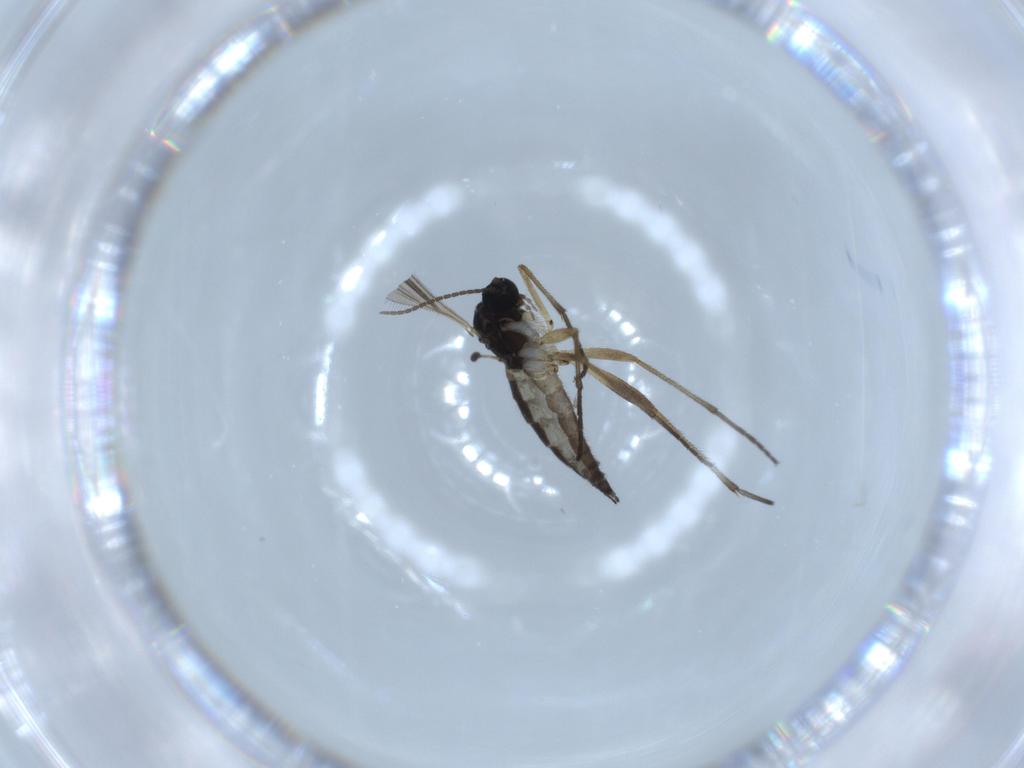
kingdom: Animalia
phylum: Arthropoda
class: Insecta
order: Diptera
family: Sciaridae
